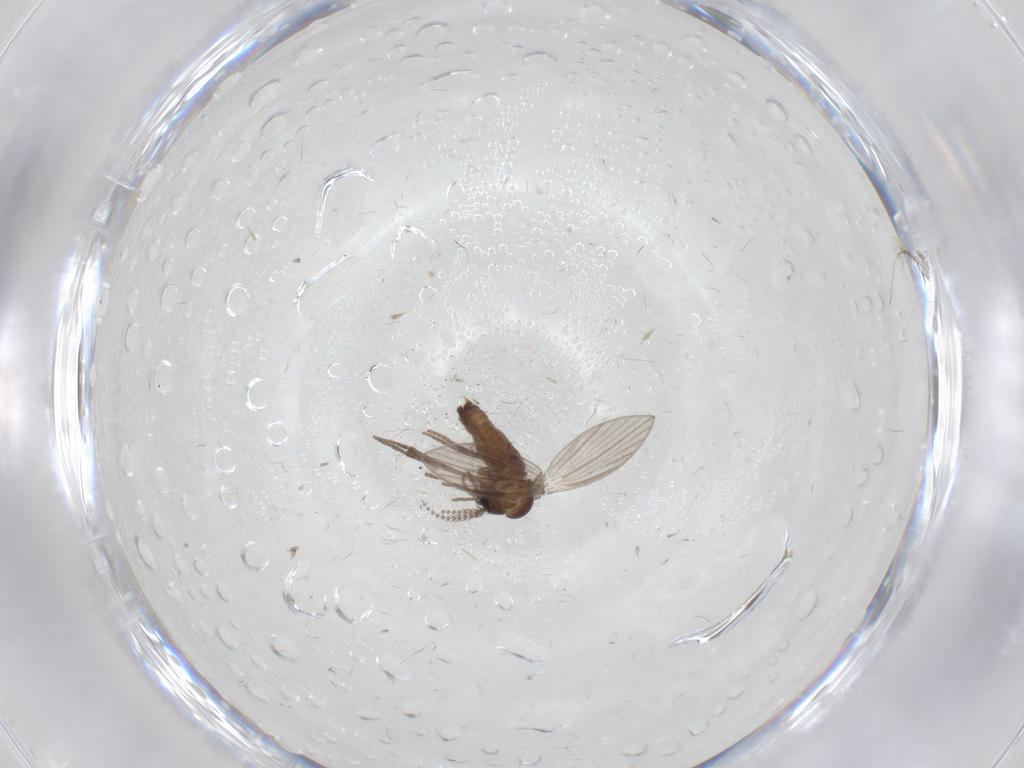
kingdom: Animalia
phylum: Arthropoda
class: Insecta
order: Diptera
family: Psychodidae
